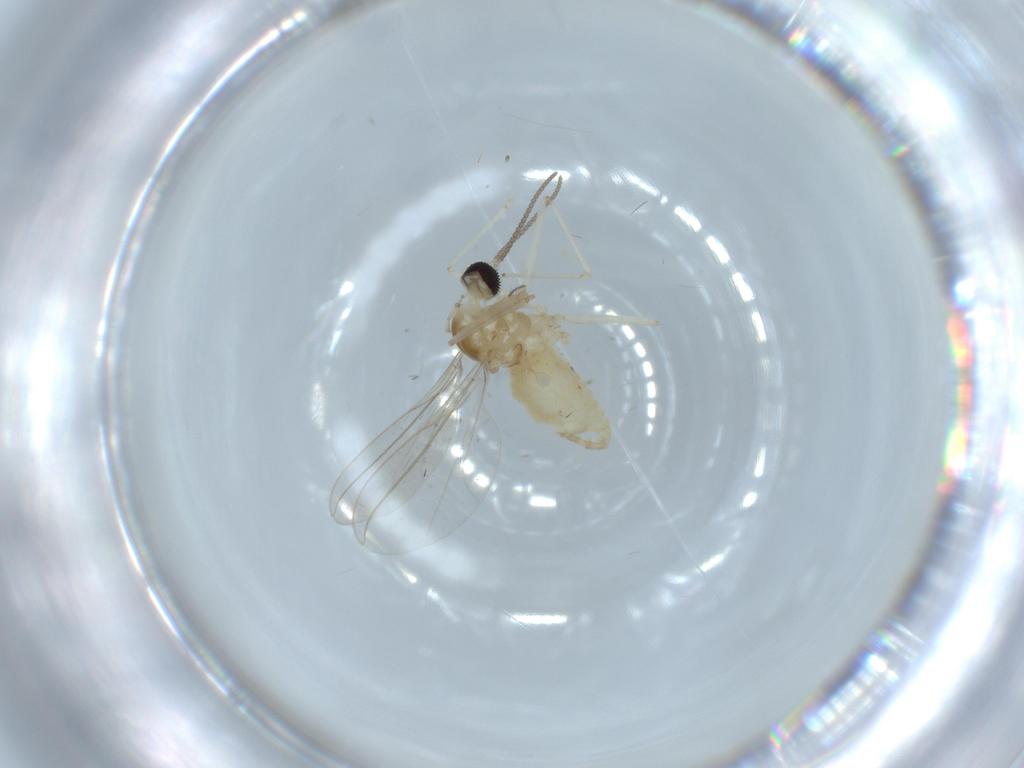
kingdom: Animalia
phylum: Arthropoda
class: Insecta
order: Diptera
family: Cecidomyiidae
